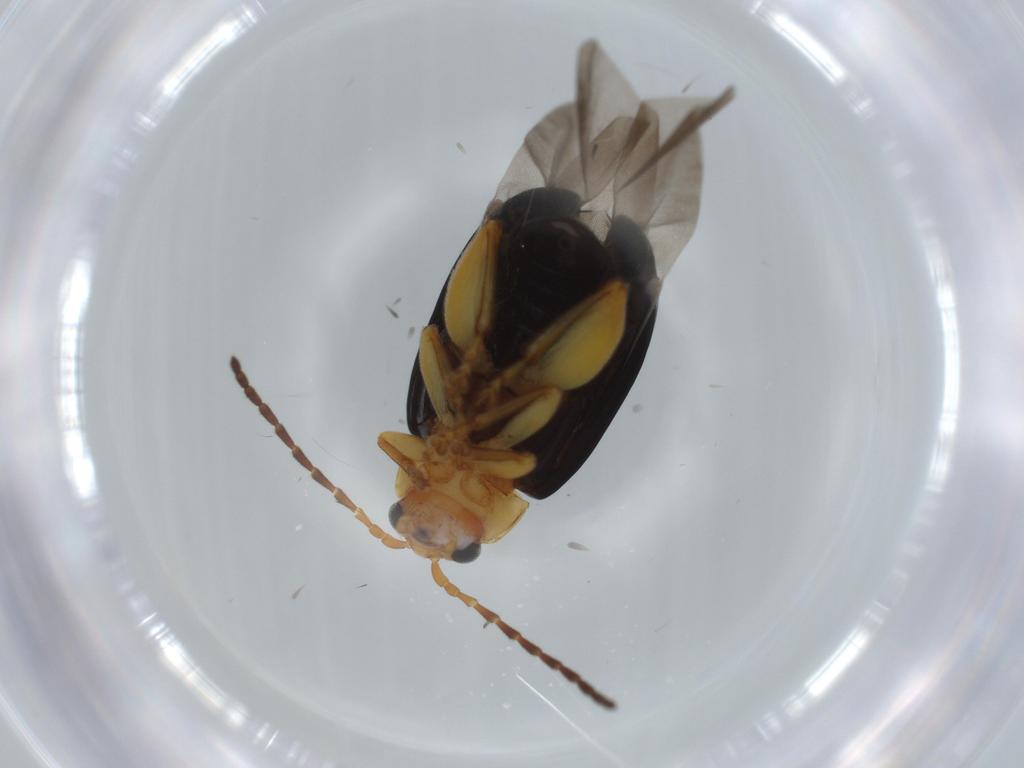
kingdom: Animalia
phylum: Arthropoda
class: Insecta
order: Coleoptera
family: Chrysomelidae
